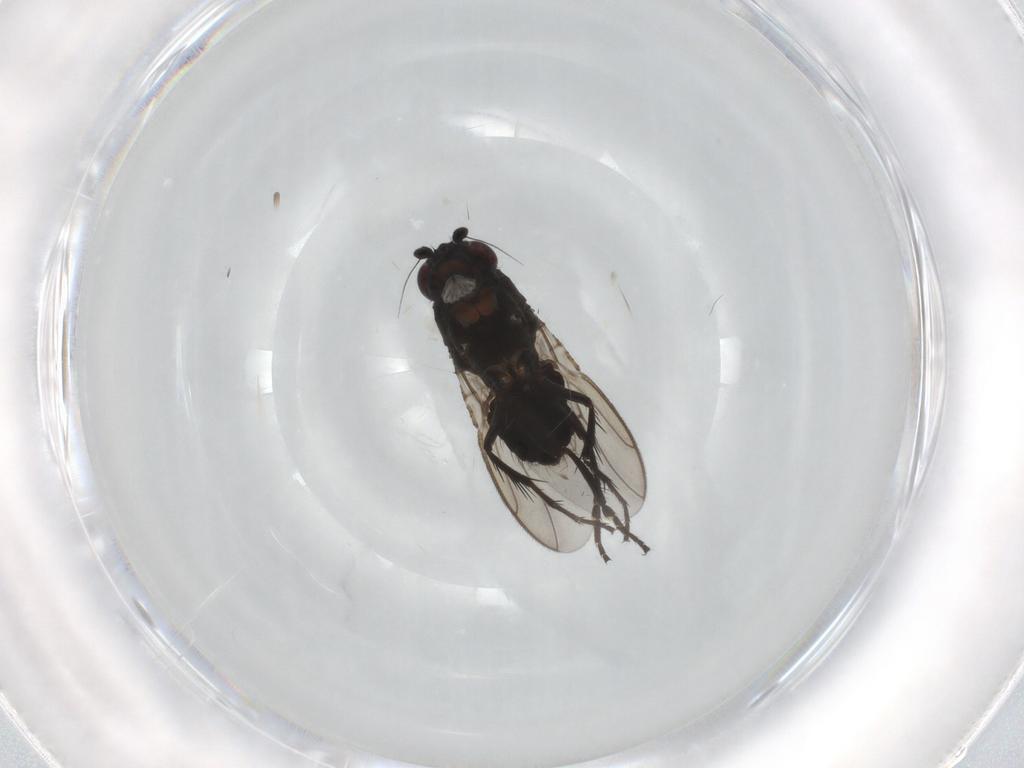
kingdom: Animalia
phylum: Arthropoda
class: Insecta
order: Diptera
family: Sphaeroceridae
